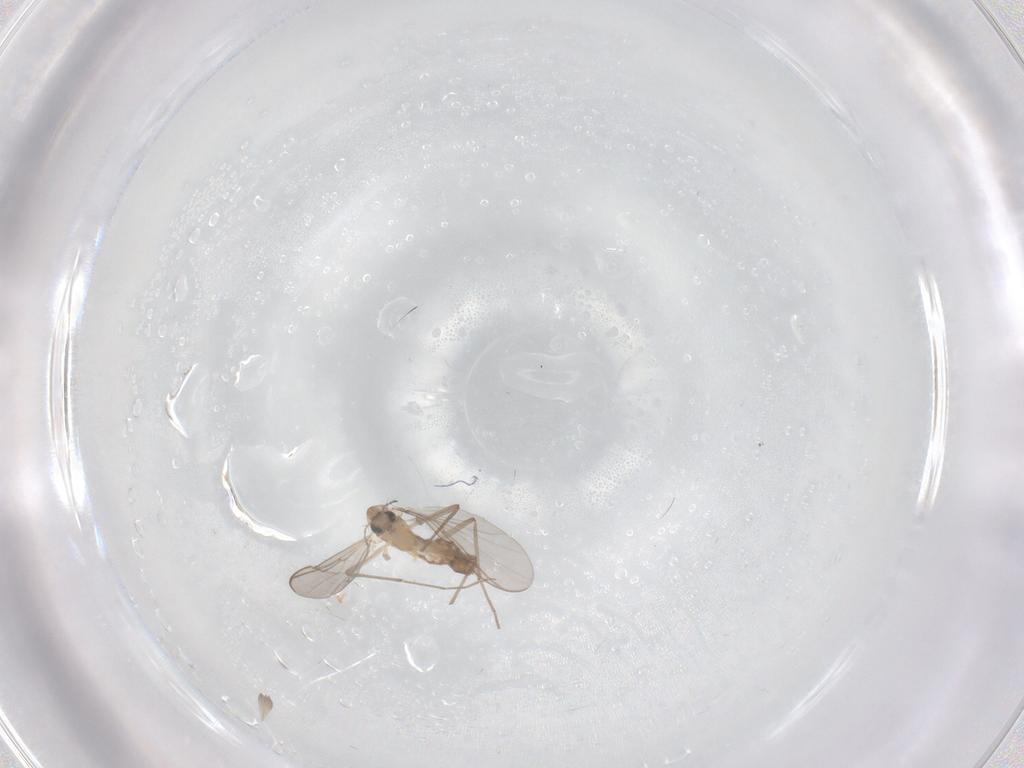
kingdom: Animalia
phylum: Arthropoda
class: Insecta
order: Diptera
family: Chironomidae
